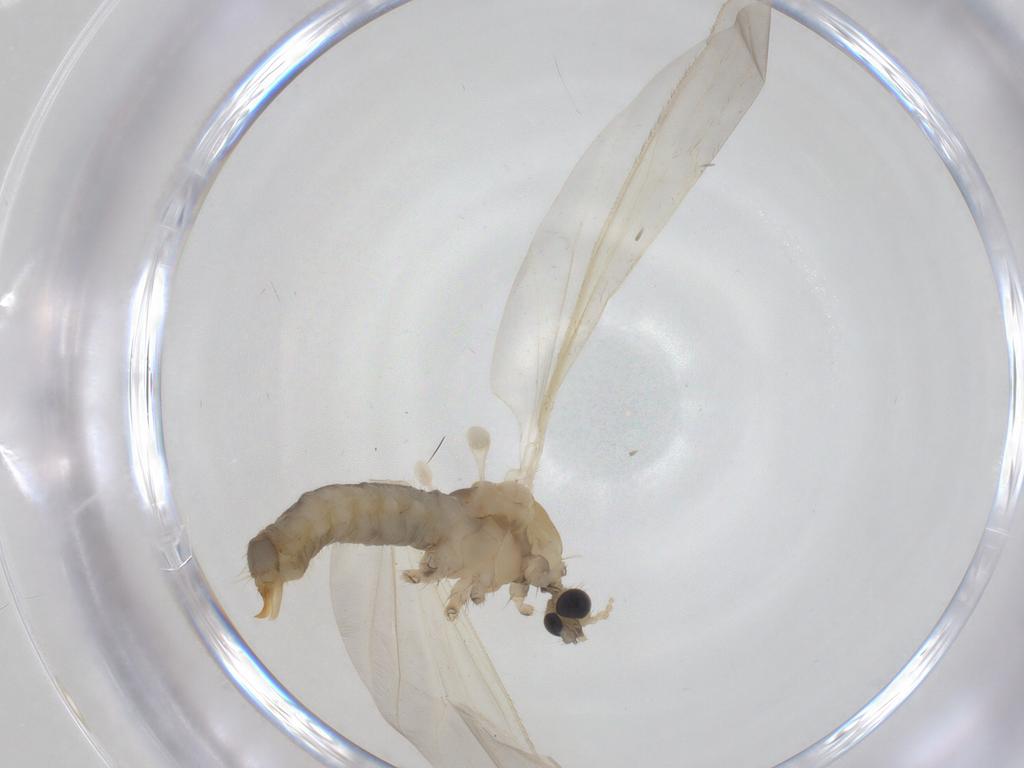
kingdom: Animalia
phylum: Arthropoda
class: Insecta
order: Diptera
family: Limoniidae
